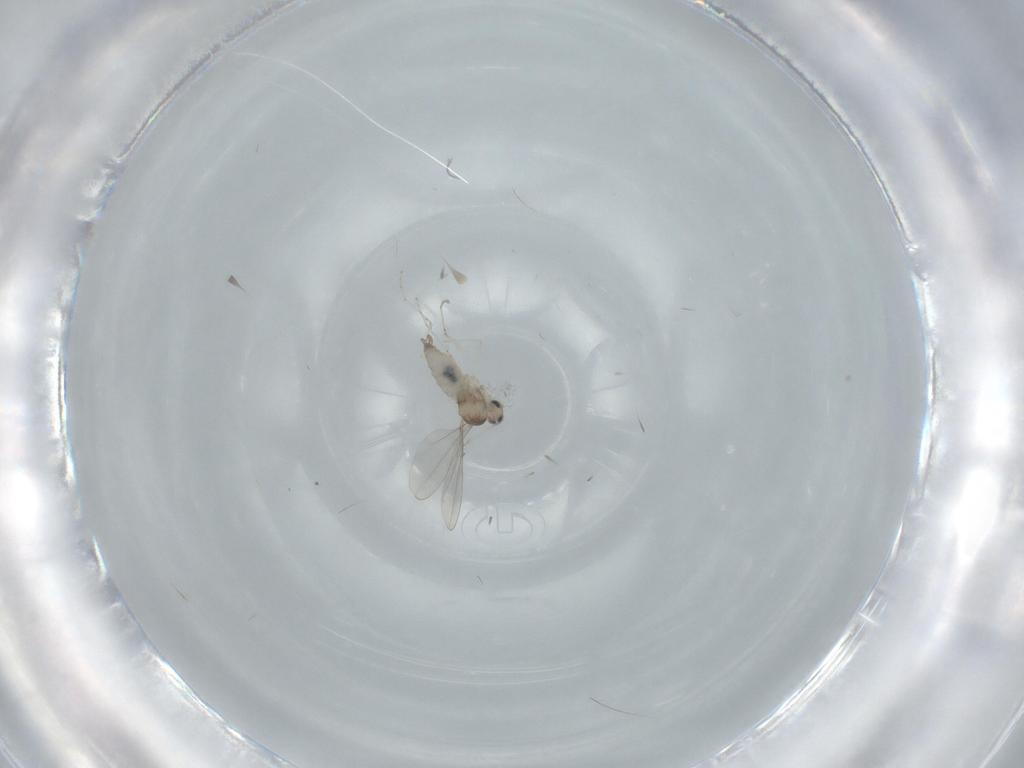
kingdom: Animalia
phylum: Arthropoda
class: Insecta
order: Diptera
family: Cecidomyiidae
